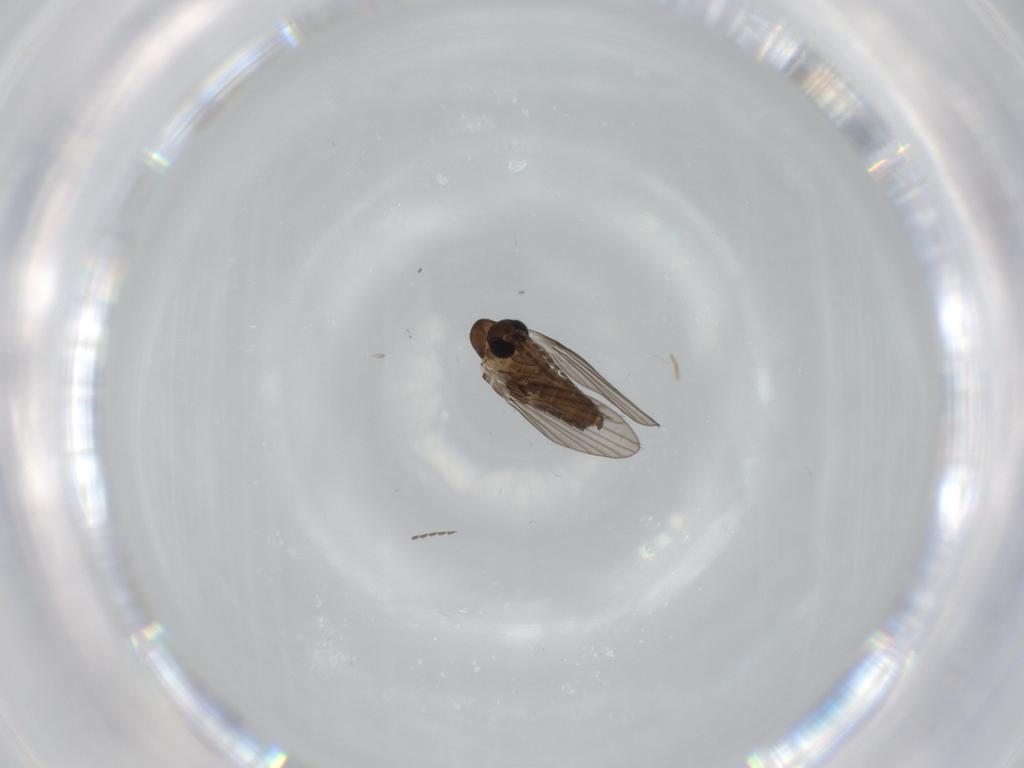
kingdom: Animalia
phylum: Arthropoda
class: Insecta
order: Diptera
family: Psychodidae
